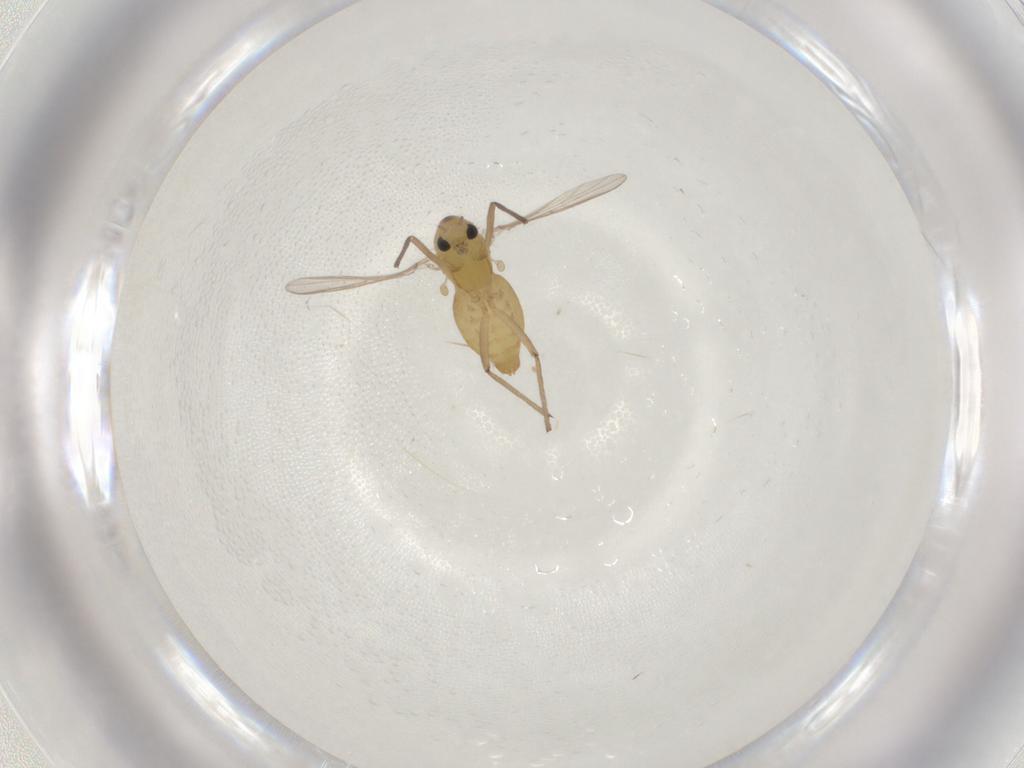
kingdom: Animalia
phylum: Arthropoda
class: Insecta
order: Diptera
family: Chironomidae
